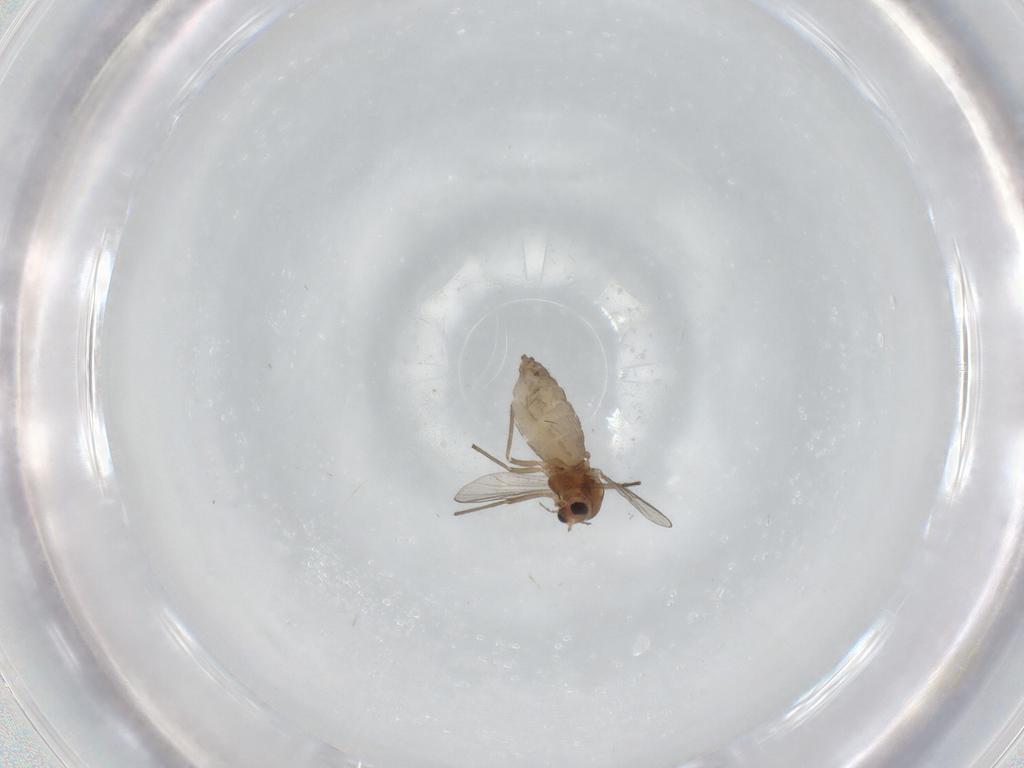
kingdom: Animalia
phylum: Arthropoda
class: Insecta
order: Diptera
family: Chironomidae
